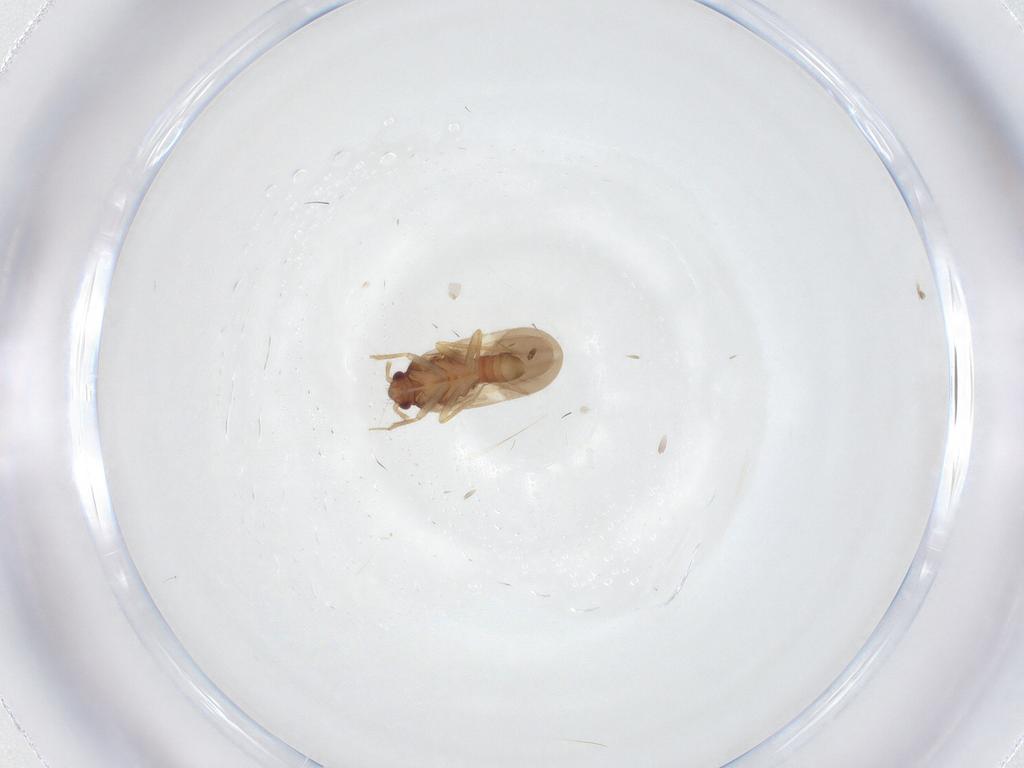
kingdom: Animalia
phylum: Arthropoda
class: Insecta
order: Hemiptera
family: Ceratocombidae
